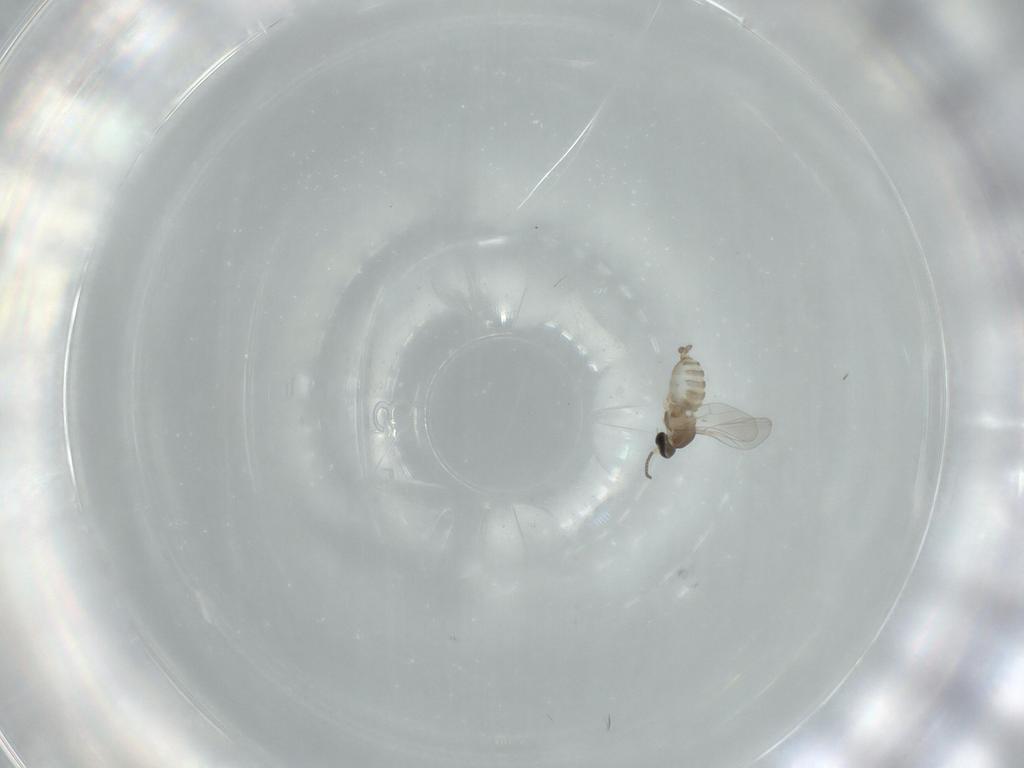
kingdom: Animalia
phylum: Arthropoda
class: Insecta
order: Diptera
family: Cecidomyiidae
